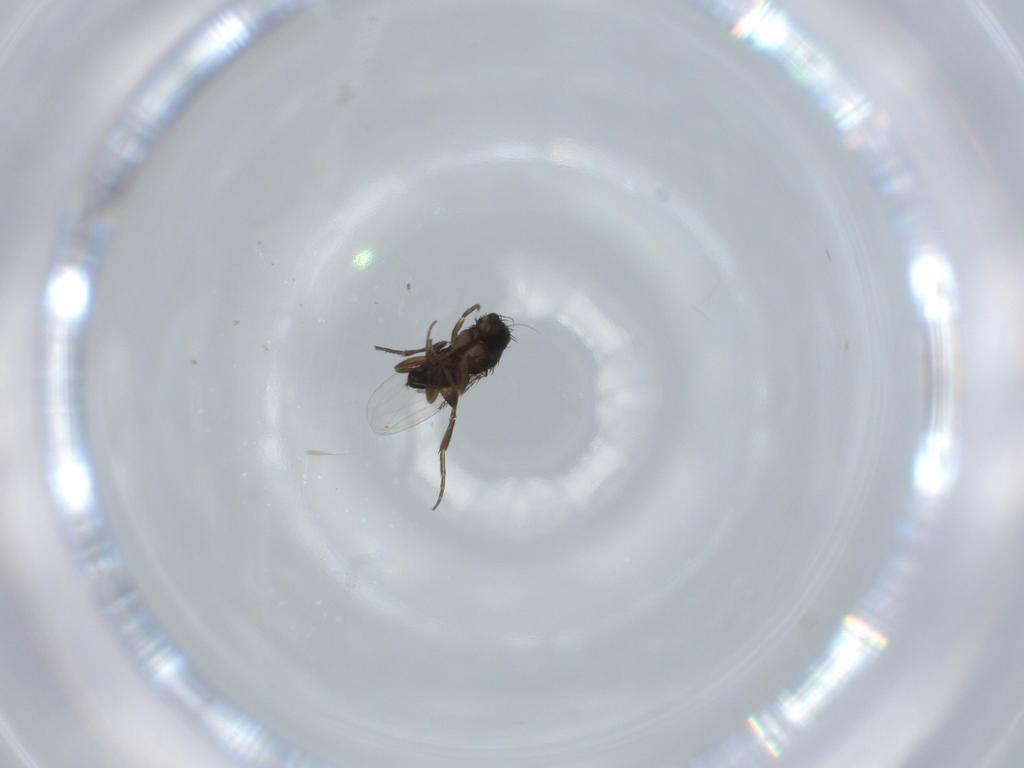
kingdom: Animalia
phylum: Arthropoda
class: Insecta
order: Diptera
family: Phoridae
